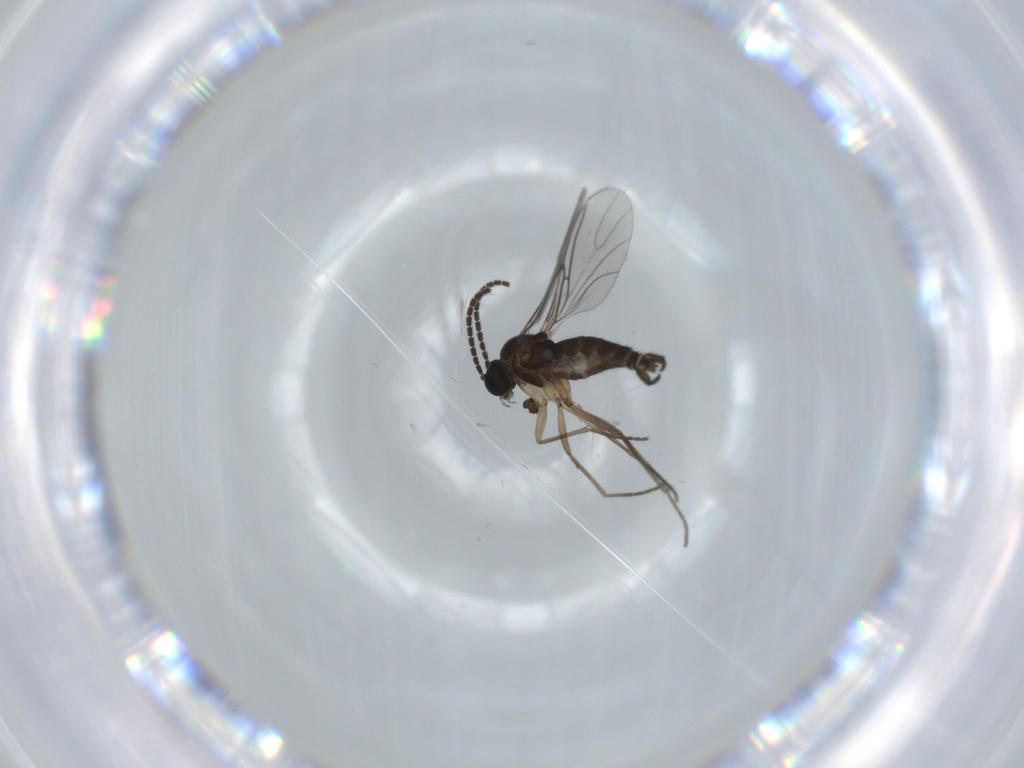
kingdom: Animalia
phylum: Arthropoda
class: Insecta
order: Diptera
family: Sciaridae
